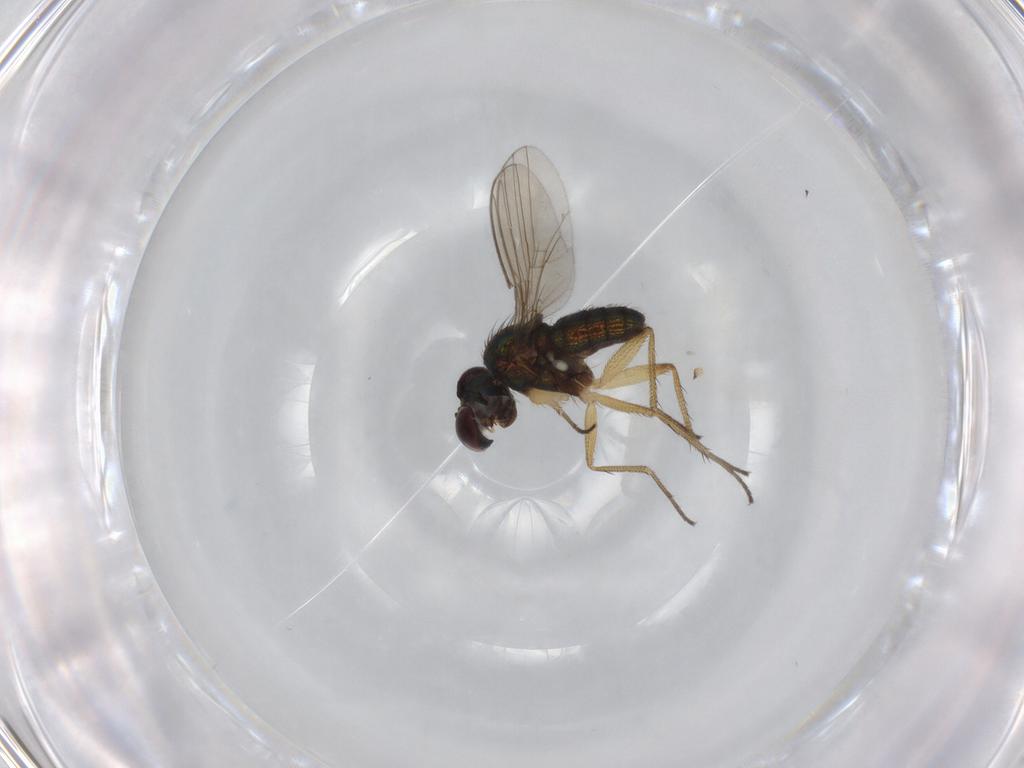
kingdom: Animalia
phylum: Arthropoda
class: Insecta
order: Diptera
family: Dolichopodidae
